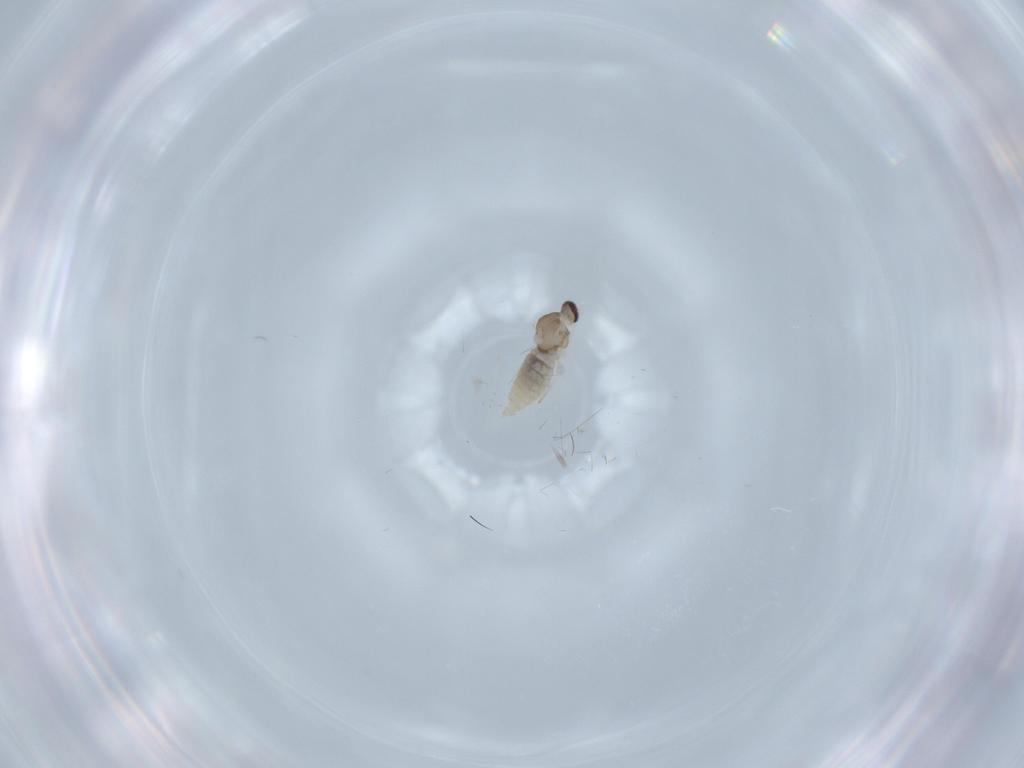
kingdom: Animalia
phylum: Arthropoda
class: Insecta
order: Diptera
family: Cecidomyiidae
